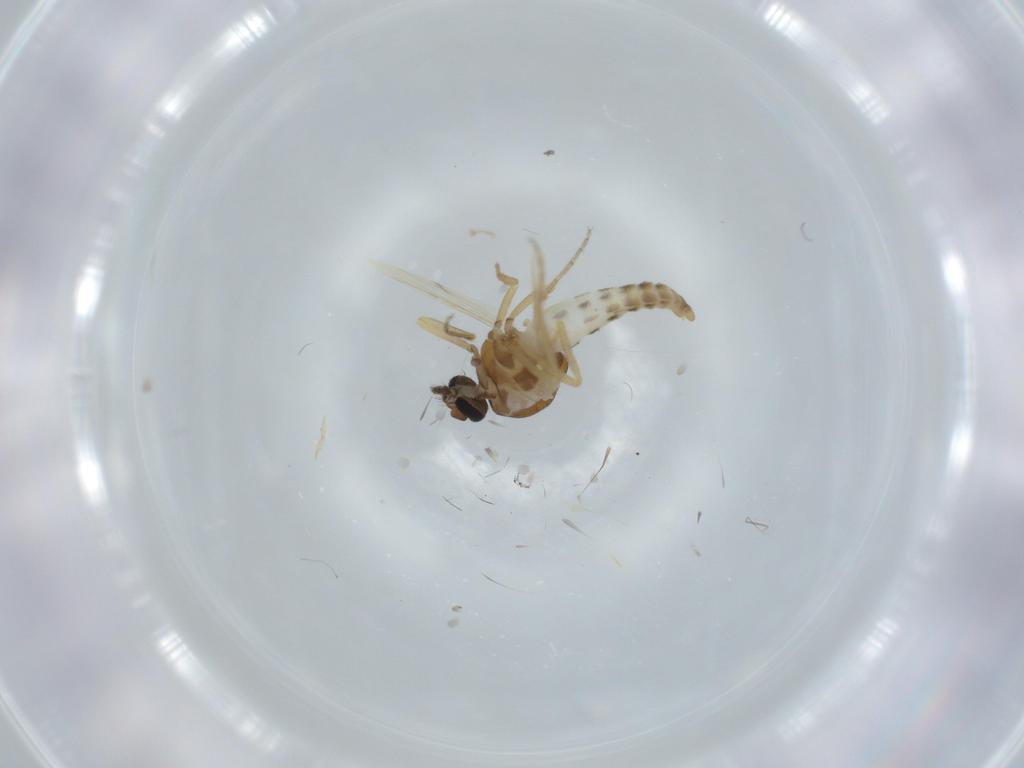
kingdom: Animalia
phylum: Arthropoda
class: Insecta
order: Diptera
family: Ceratopogonidae
